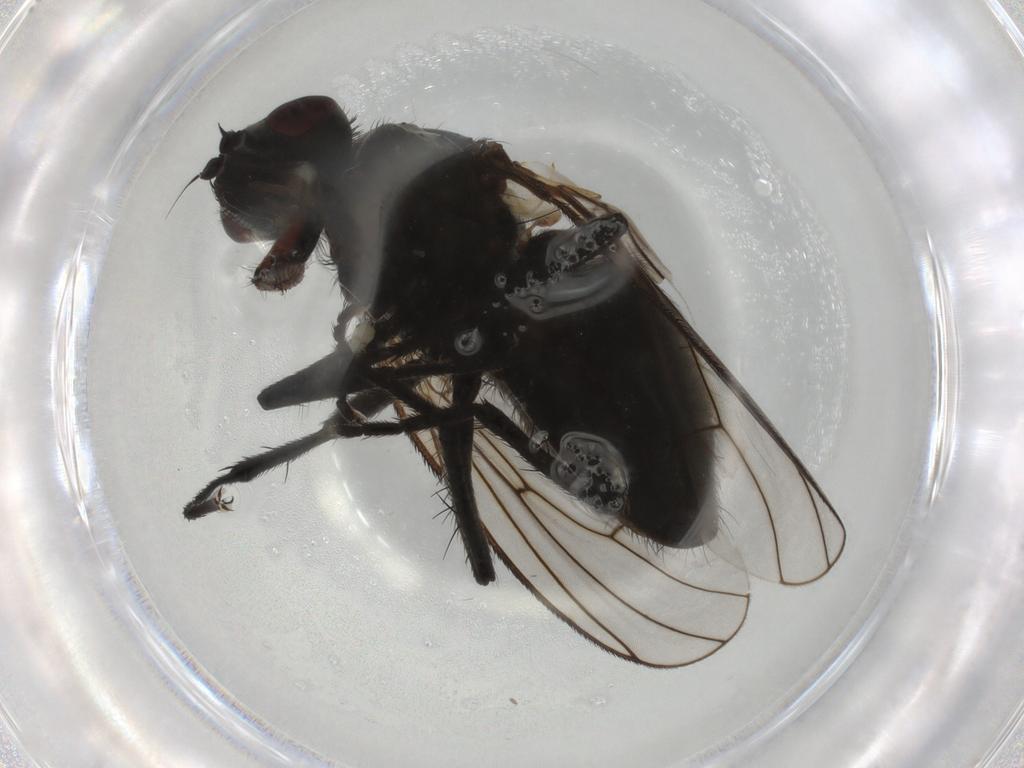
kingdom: Animalia
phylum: Arthropoda
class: Insecta
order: Diptera
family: Muscidae
